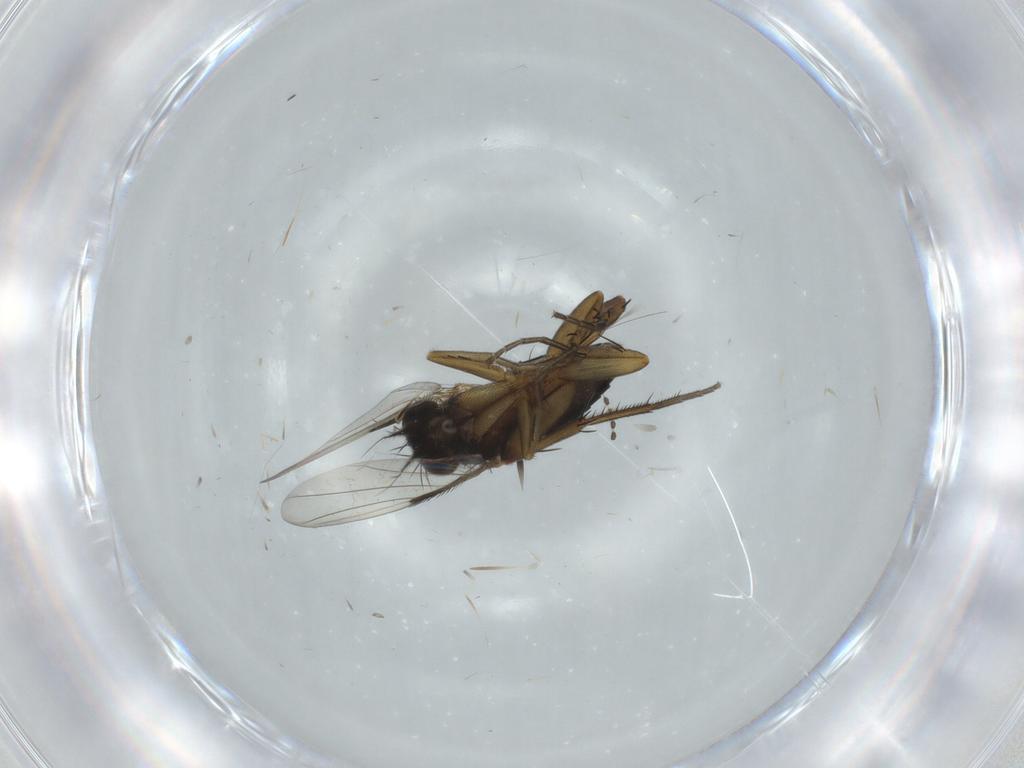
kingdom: Animalia
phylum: Arthropoda
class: Insecta
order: Diptera
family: Phoridae
